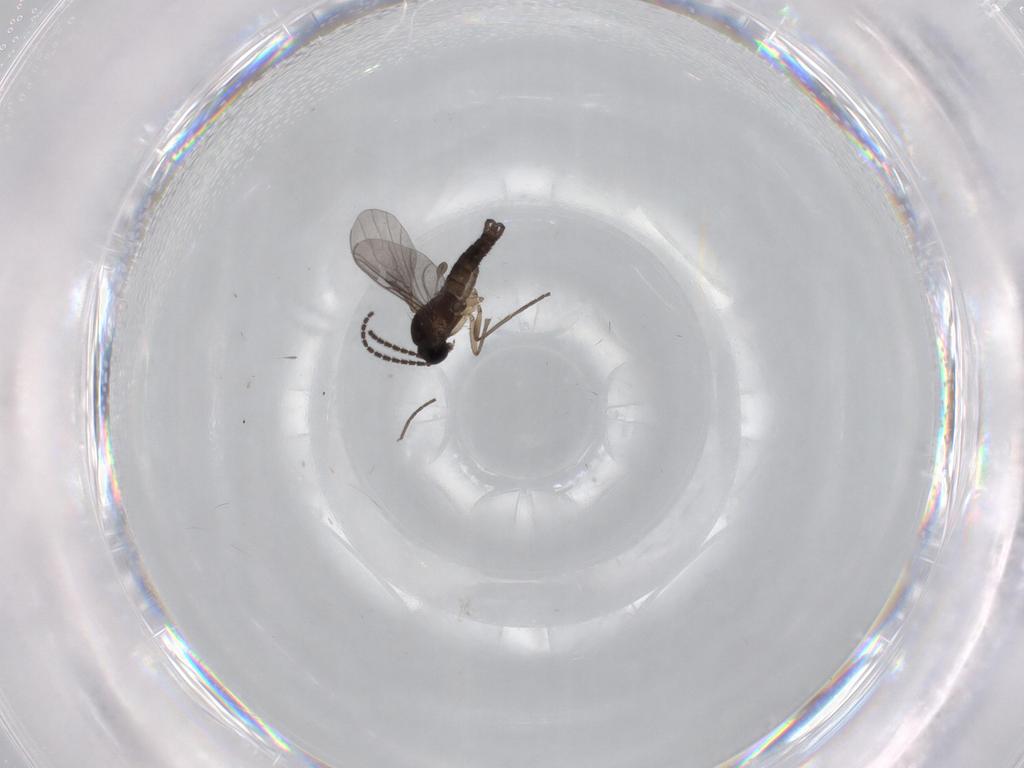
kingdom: Animalia
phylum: Arthropoda
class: Insecta
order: Diptera
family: Sciaridae
